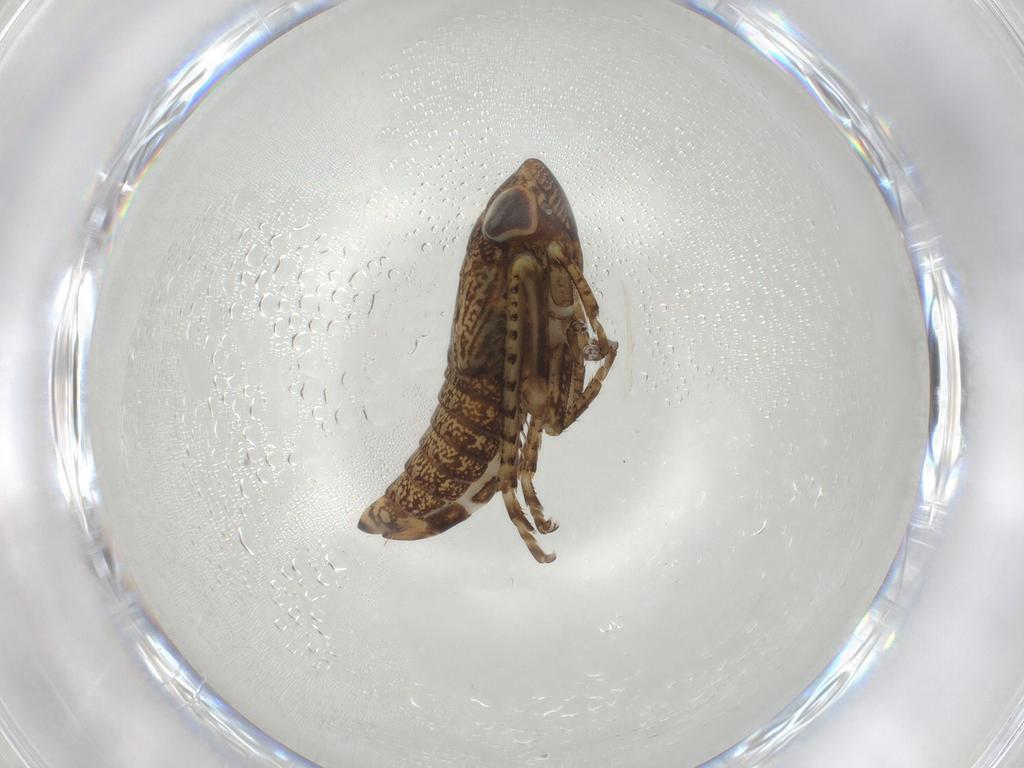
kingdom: Animalia
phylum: Arthropoda
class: Insecta
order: Hemiptera
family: Cicadellidae
